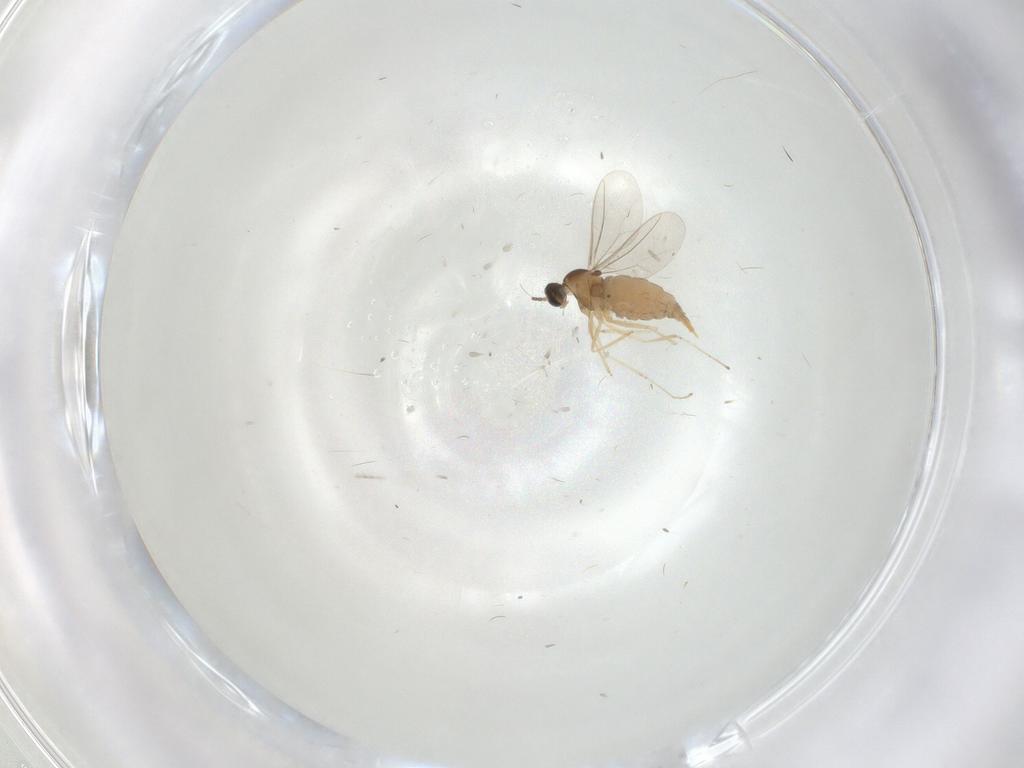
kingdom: Animalia
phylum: Arthropoda
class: Insecta
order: Diptera
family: Cecidomyiidae
